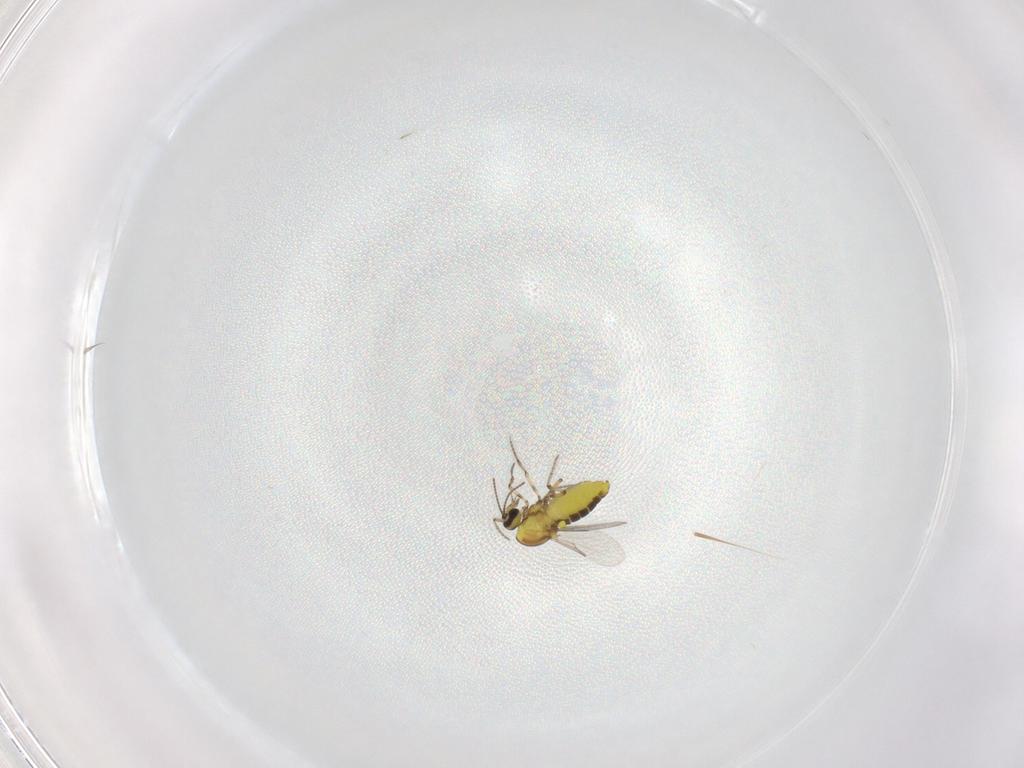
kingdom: Animalia
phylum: Arthropoda
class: Insecta
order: Diptera
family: Ceratopogonidae
